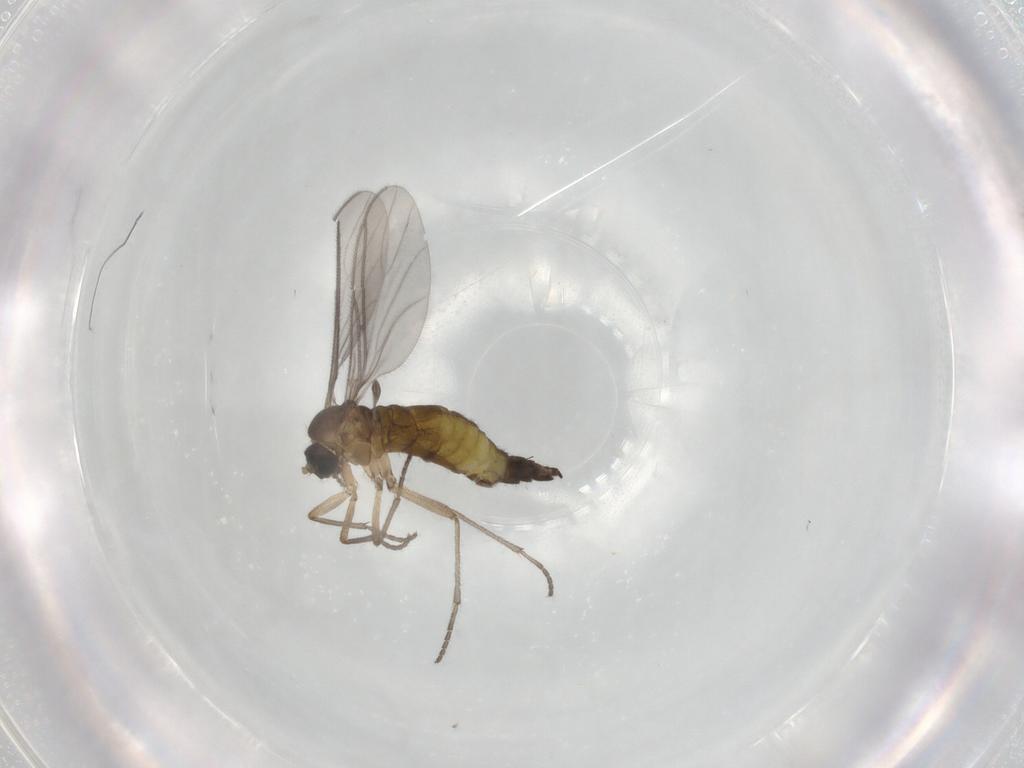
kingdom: Animalia
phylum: Arthropoda
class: Insecta
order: Diptera
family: Sciaridae
